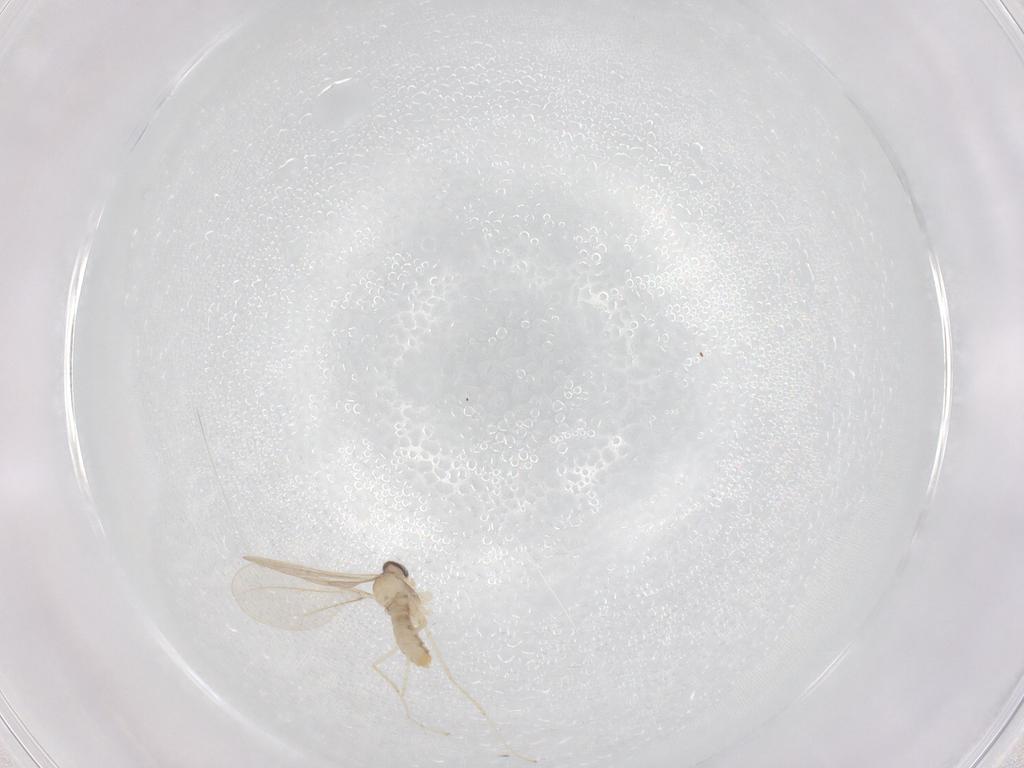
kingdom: Animalia
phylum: Arthropoda
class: Insecta
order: Diptera
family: Cecidomyiidae
